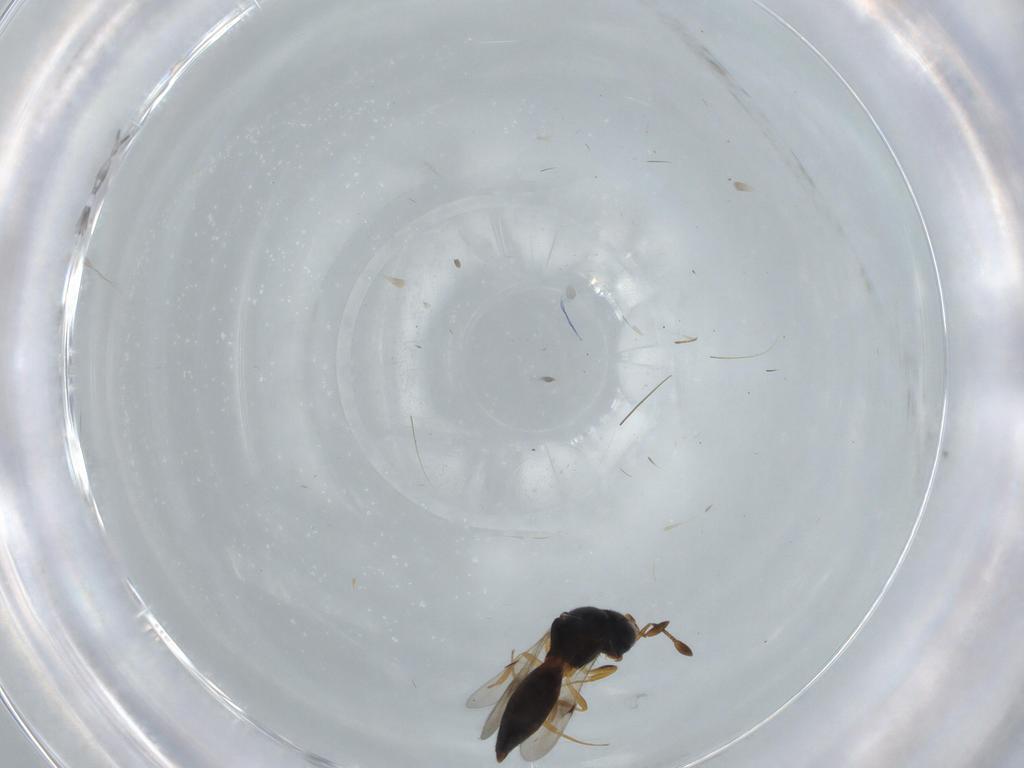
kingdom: Animalia
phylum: Arthropoda
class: Insecta
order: Hymenoptera
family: Scelionidae
